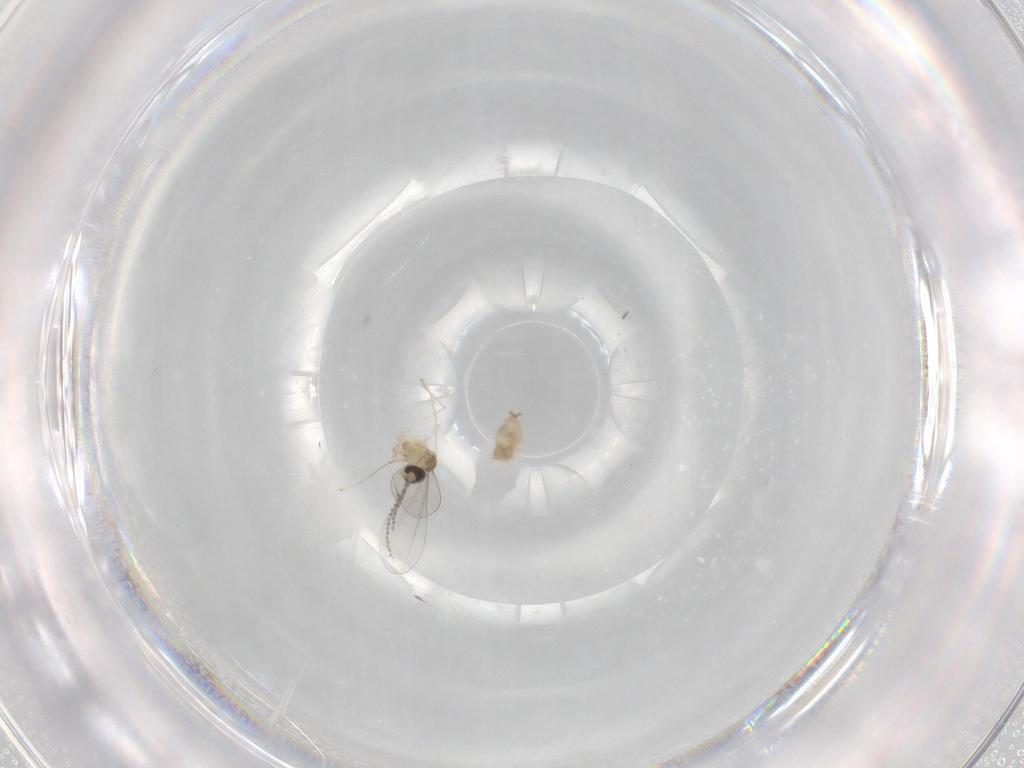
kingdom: Animalia
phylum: Arthropoda
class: Insecta
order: Diptera
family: Cecidomyiidae
